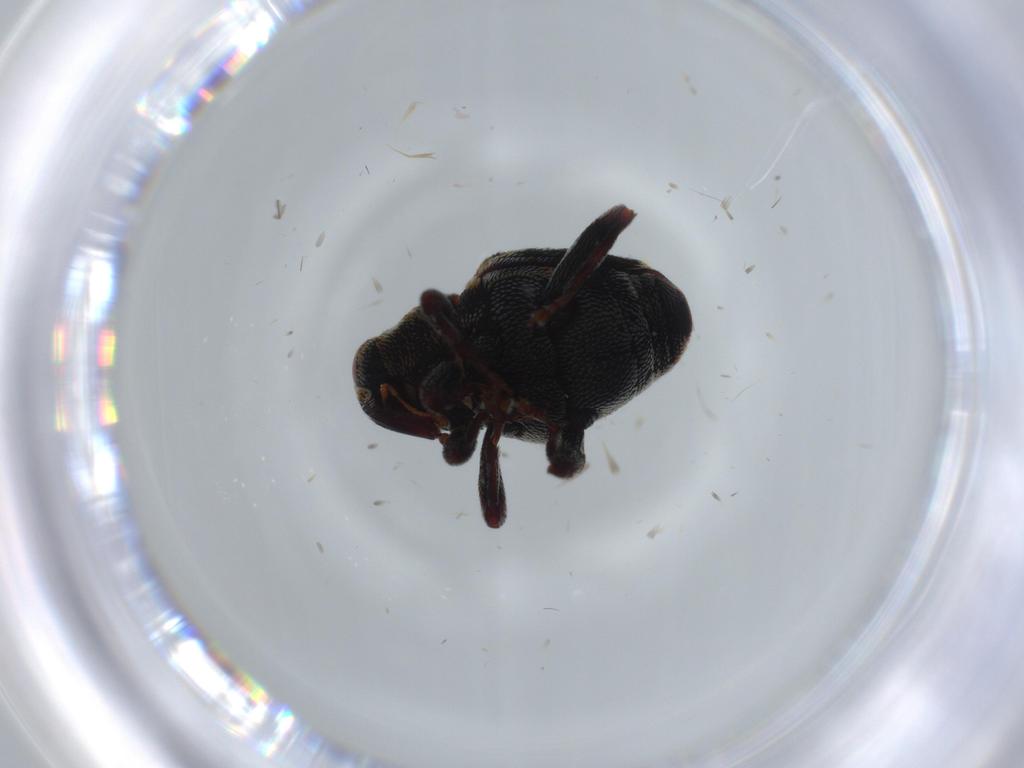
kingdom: Animalia
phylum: Arthropoda
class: Insecta
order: Coleoptera
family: Curculionidae
